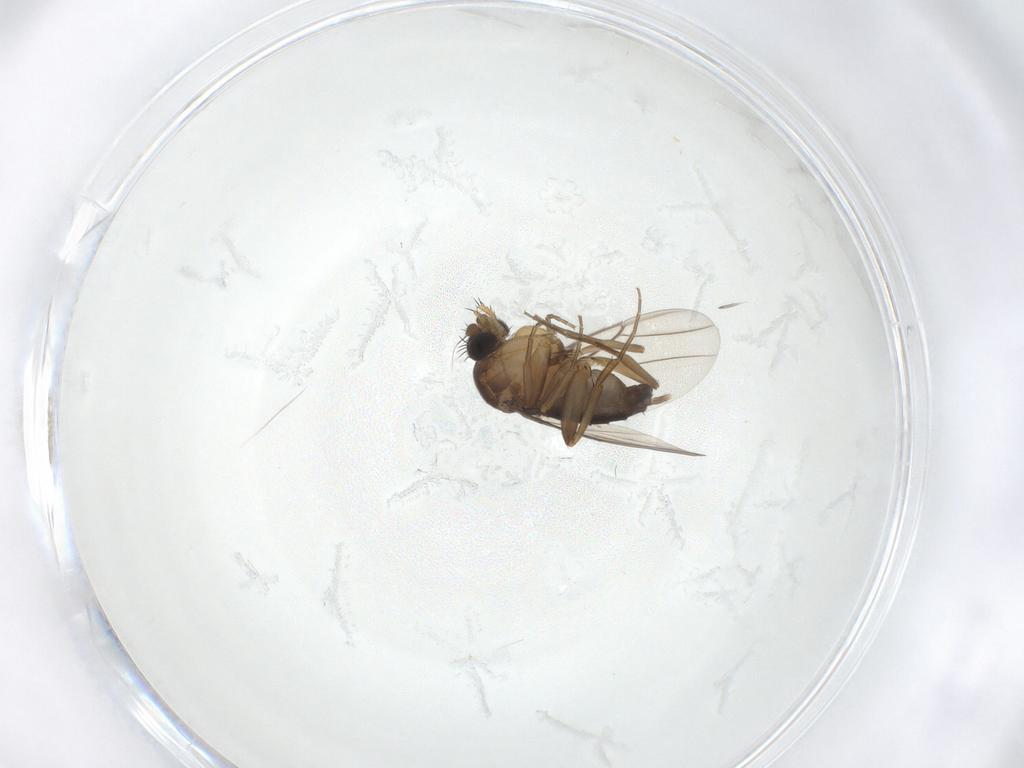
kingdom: Animalia
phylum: Arthropoda
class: Insecta
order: Diptera
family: Phoridae
